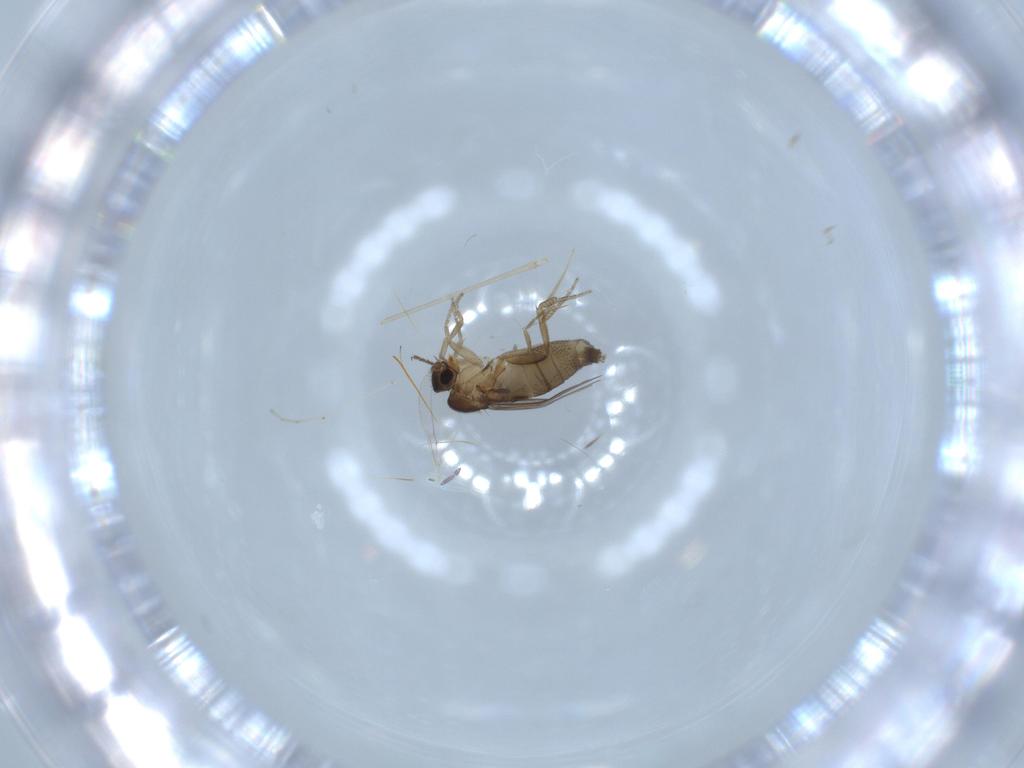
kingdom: Animalia
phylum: Arthropoda
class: Insecta
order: Diptera
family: Phoridae
